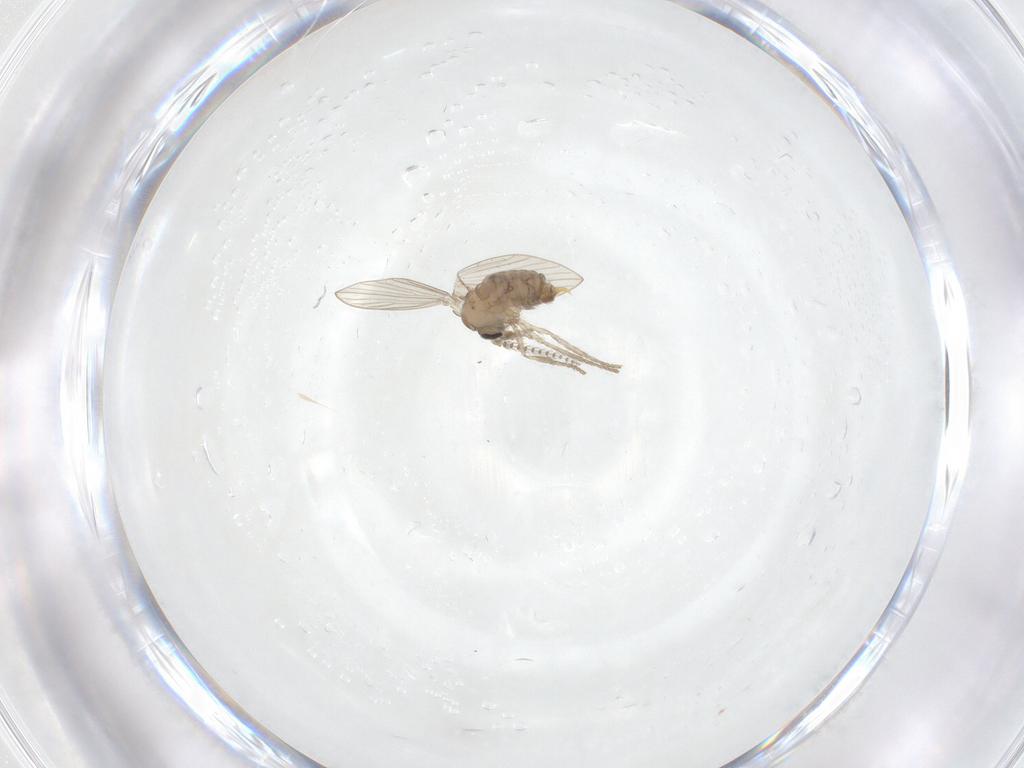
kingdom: Animalia
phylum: Arthropoda
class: Insecta
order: Diptera
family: Psychodidae
